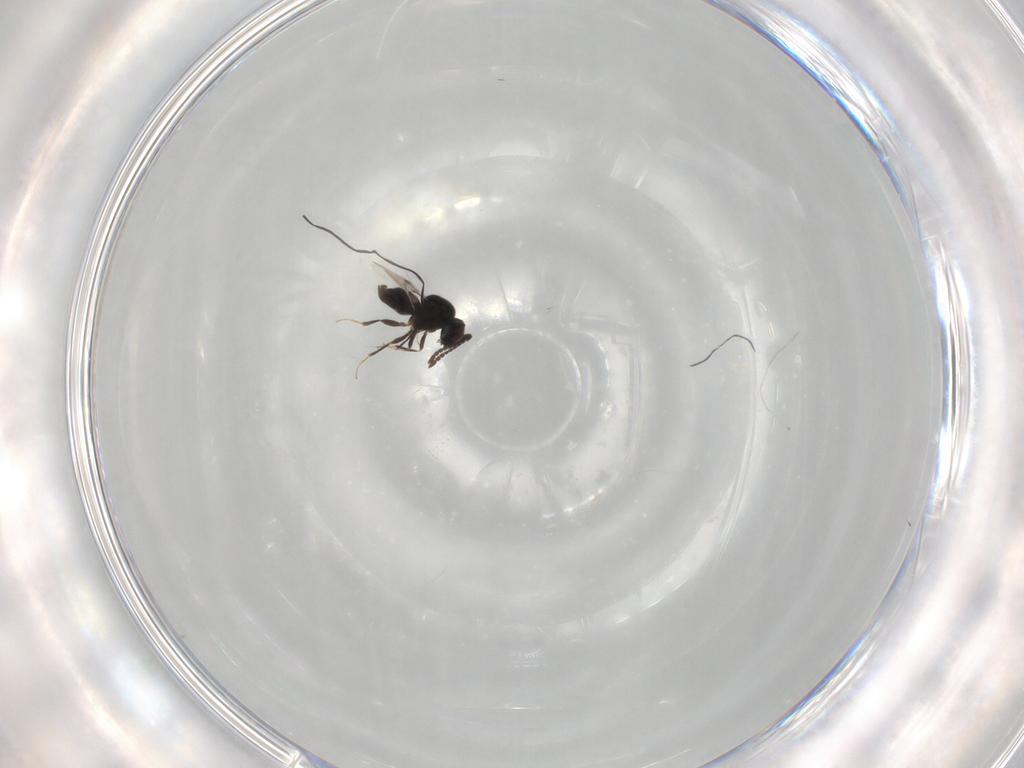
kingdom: Animalia
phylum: Arthropoda
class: Insecta
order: Hymenoptera
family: Ceraphronidae
